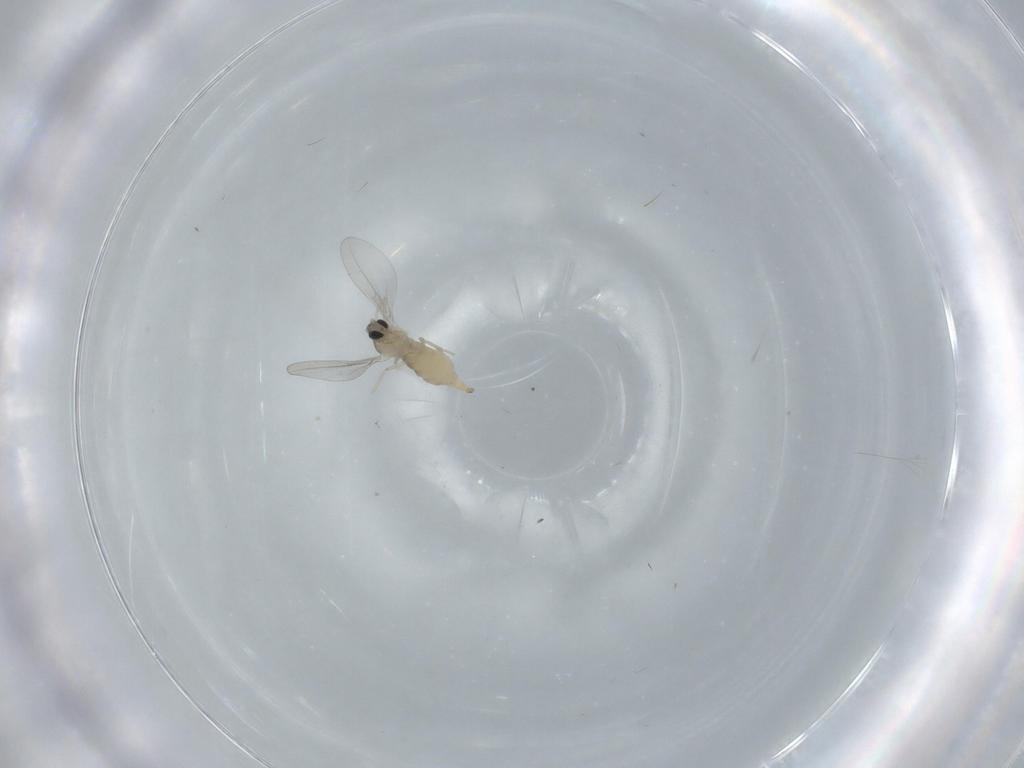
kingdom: Animalia
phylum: Arthropoda
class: Insecta
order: Diptera
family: Cecidomyiidae
